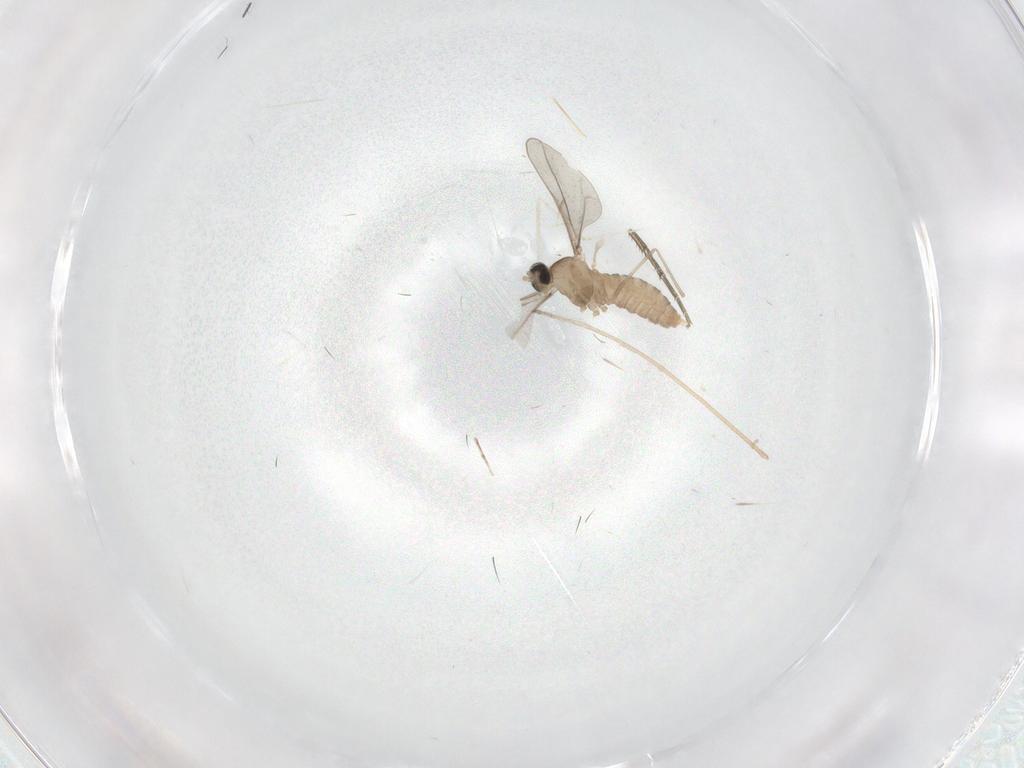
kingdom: Animalia
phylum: Arthropoda
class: Insecta
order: Diptera
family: Cecidomyiidae
